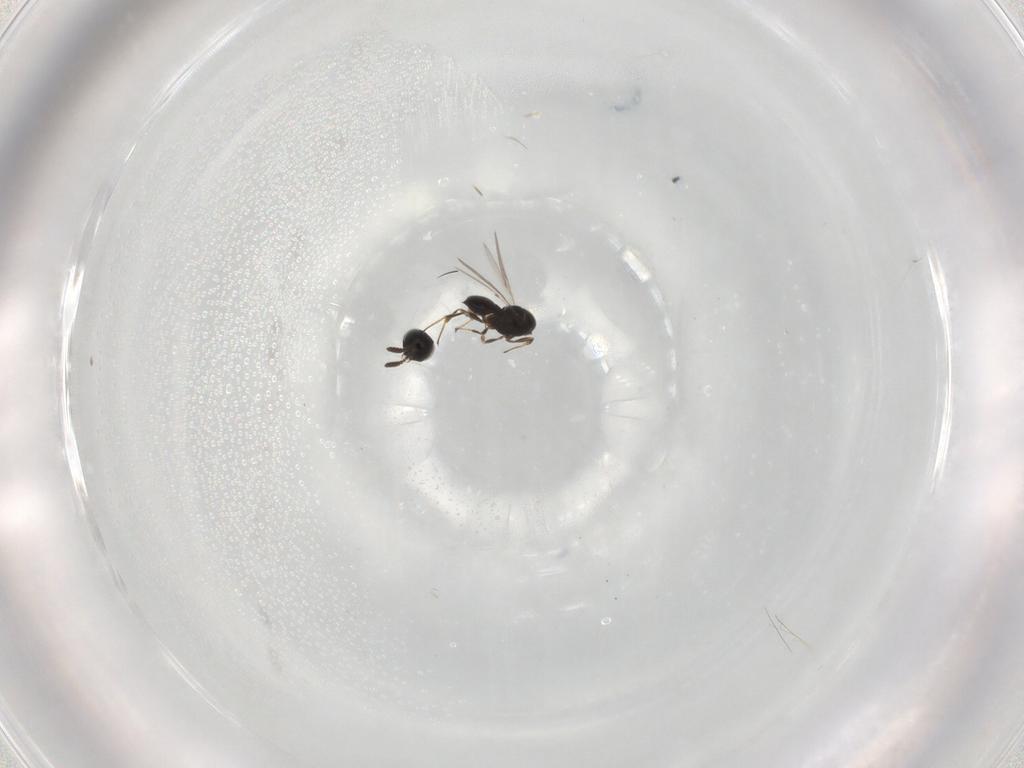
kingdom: Animalia
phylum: Arthropoda
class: Insecta
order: Hymenoptera
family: Scelionidae
